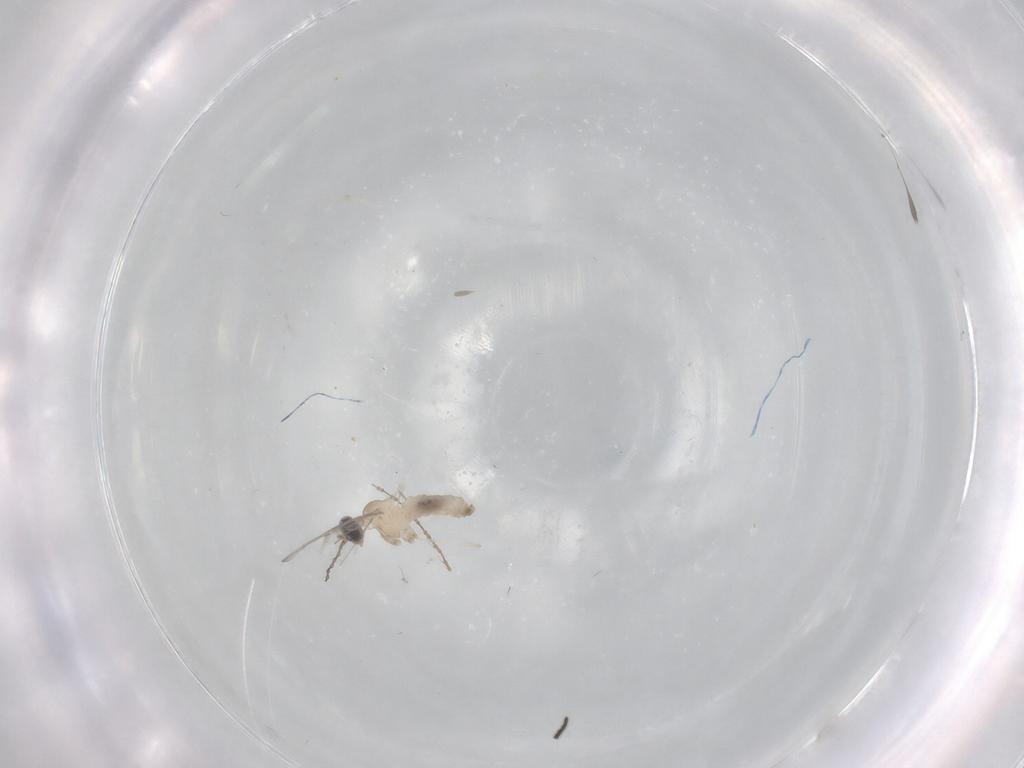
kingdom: Animalia
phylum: Arthropoda
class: Insecta
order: Diptera
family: Sciaridae
